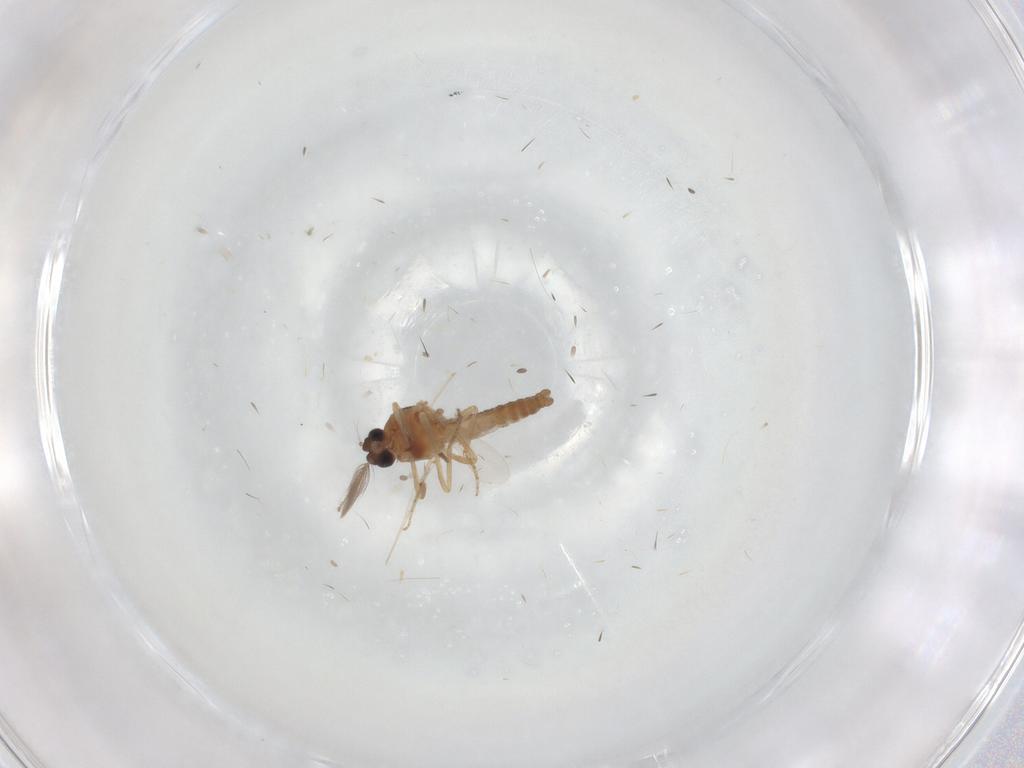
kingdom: Animalia
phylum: Arthropoda
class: Insecta
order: Diptera
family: Ceratopogonidae
